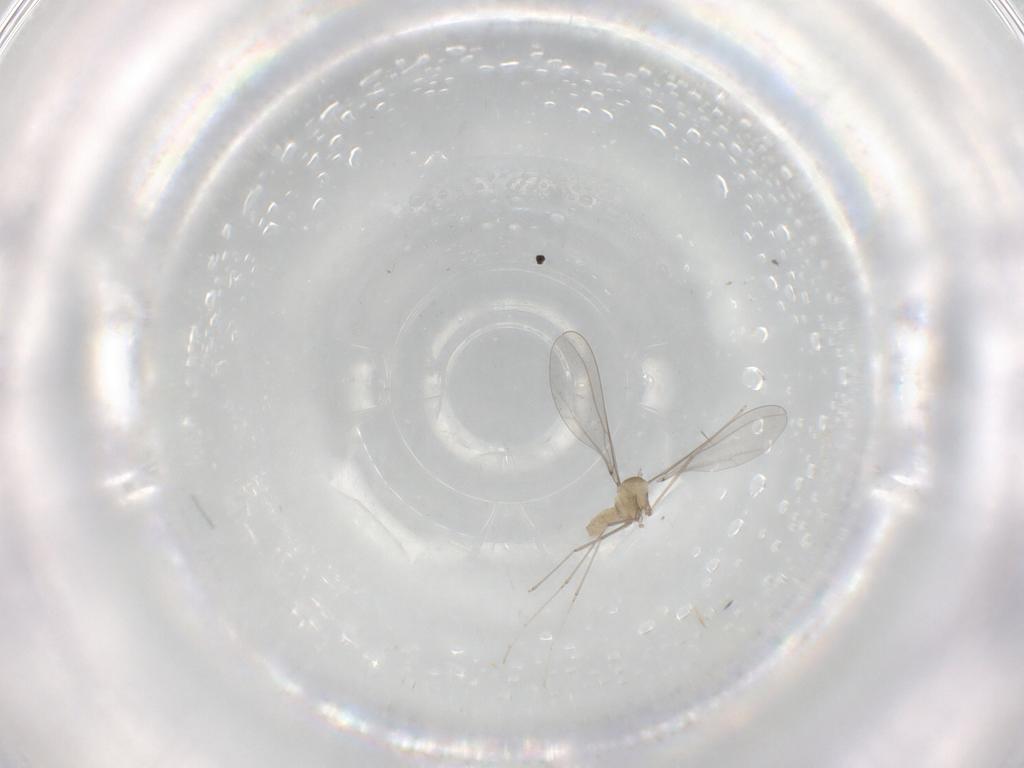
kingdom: Animalia
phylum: Arthropoda
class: Insecta
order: Diptera
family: Cecidomyiidae
